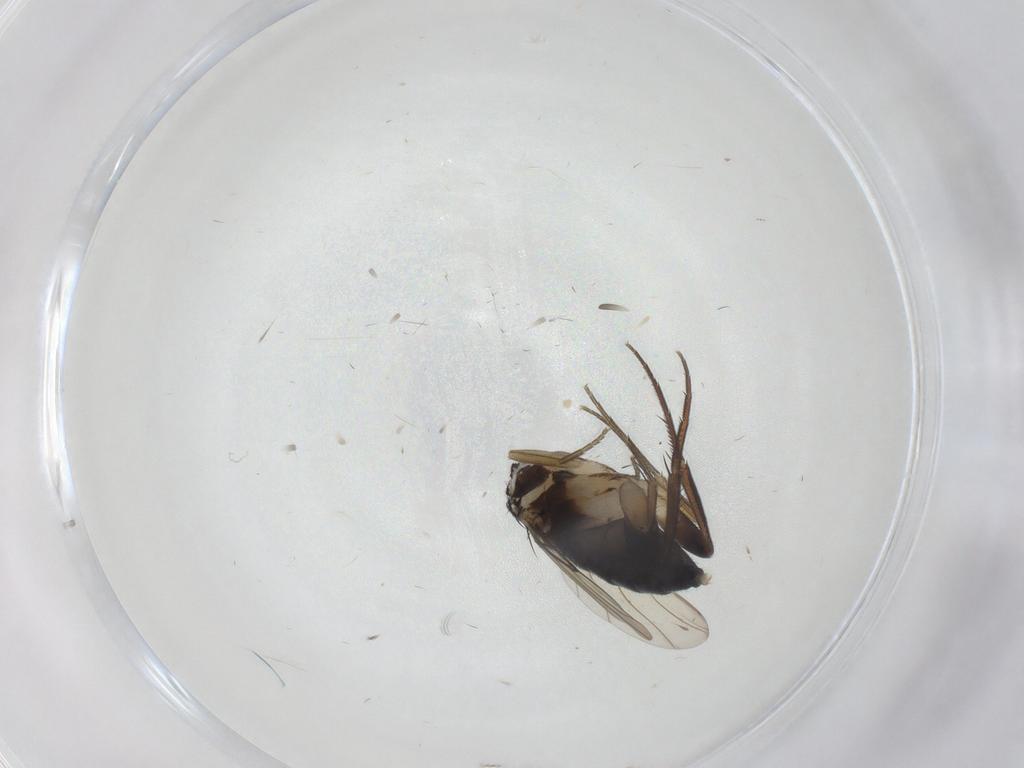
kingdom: Animalia
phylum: Arthropoda
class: Insecta
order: Diptera
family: Phoridae
